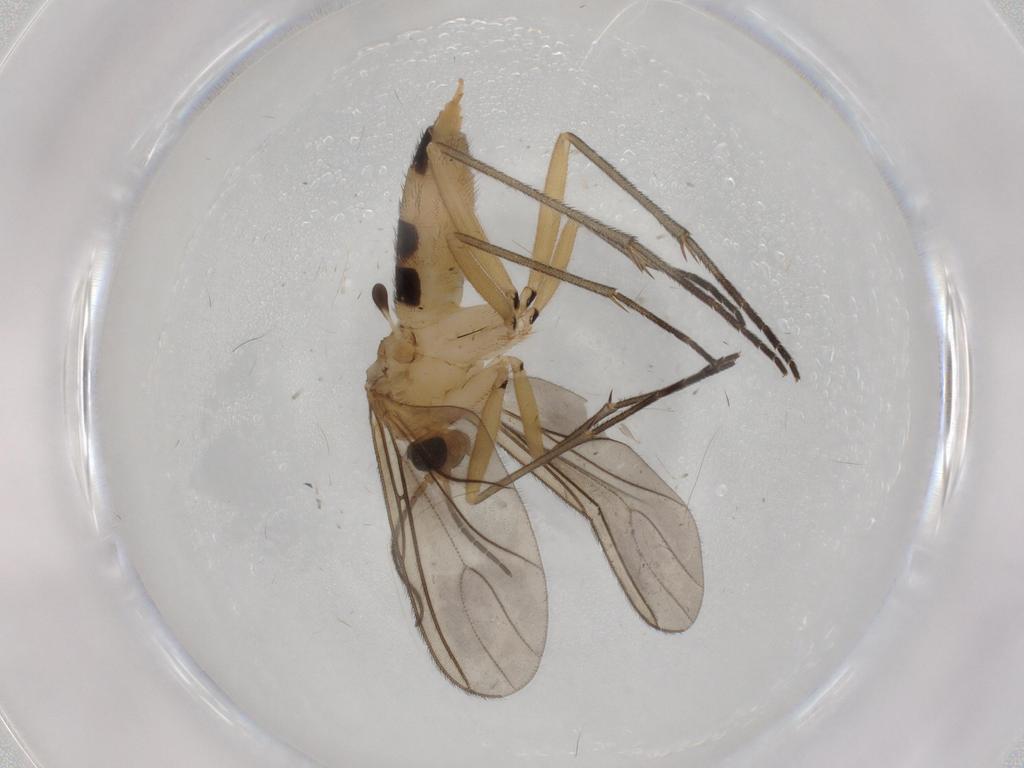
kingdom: Animalia
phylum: Arthropoda
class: Insecta
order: Diptera
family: Sciaridae
